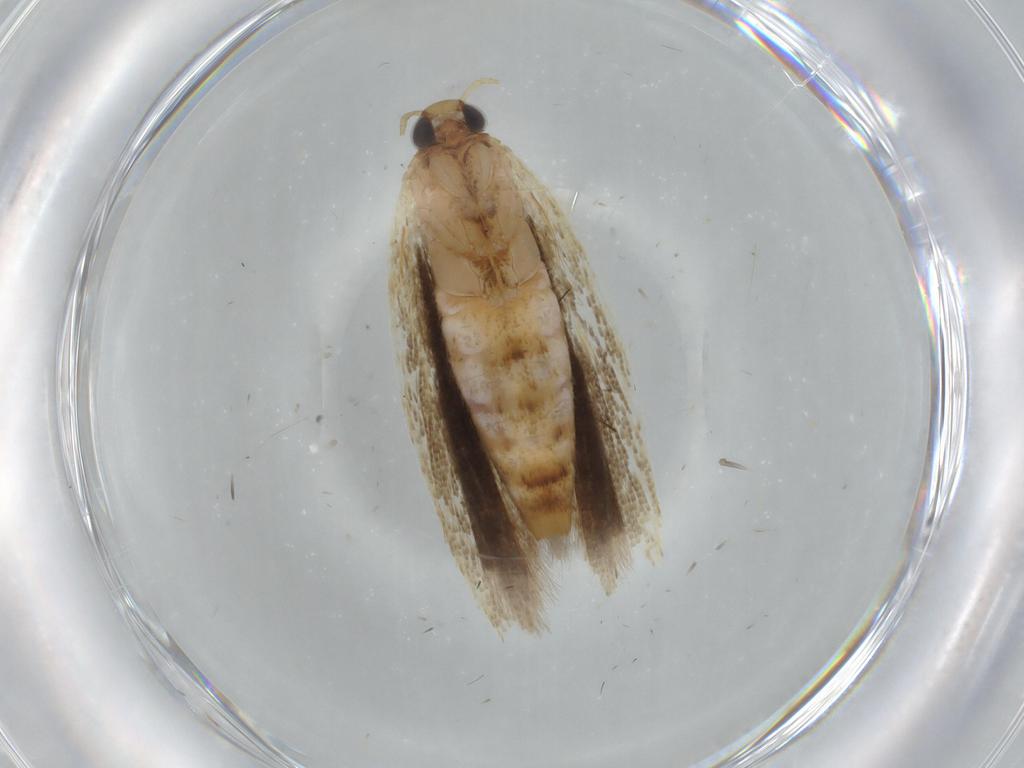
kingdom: Animalia
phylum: Arthropoda
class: Insecta
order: Lepidoptera
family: Gelechiidae
